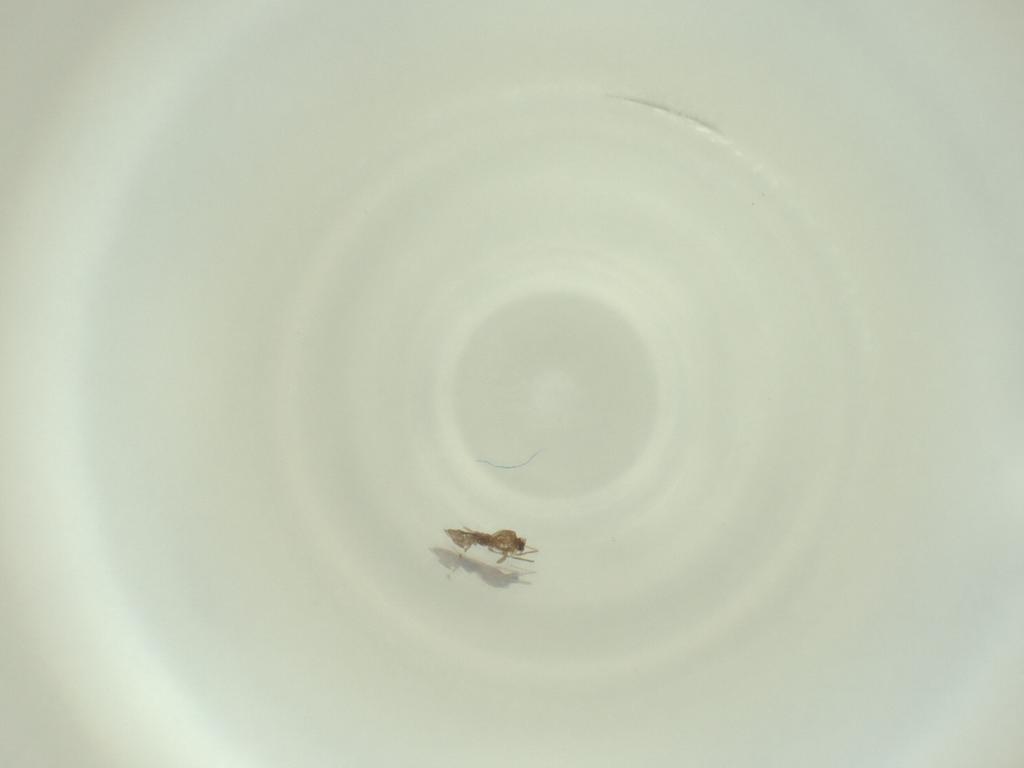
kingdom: Animalia
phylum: Arthropoda
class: Insecta
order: Diptera
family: Cecidomyiidae
